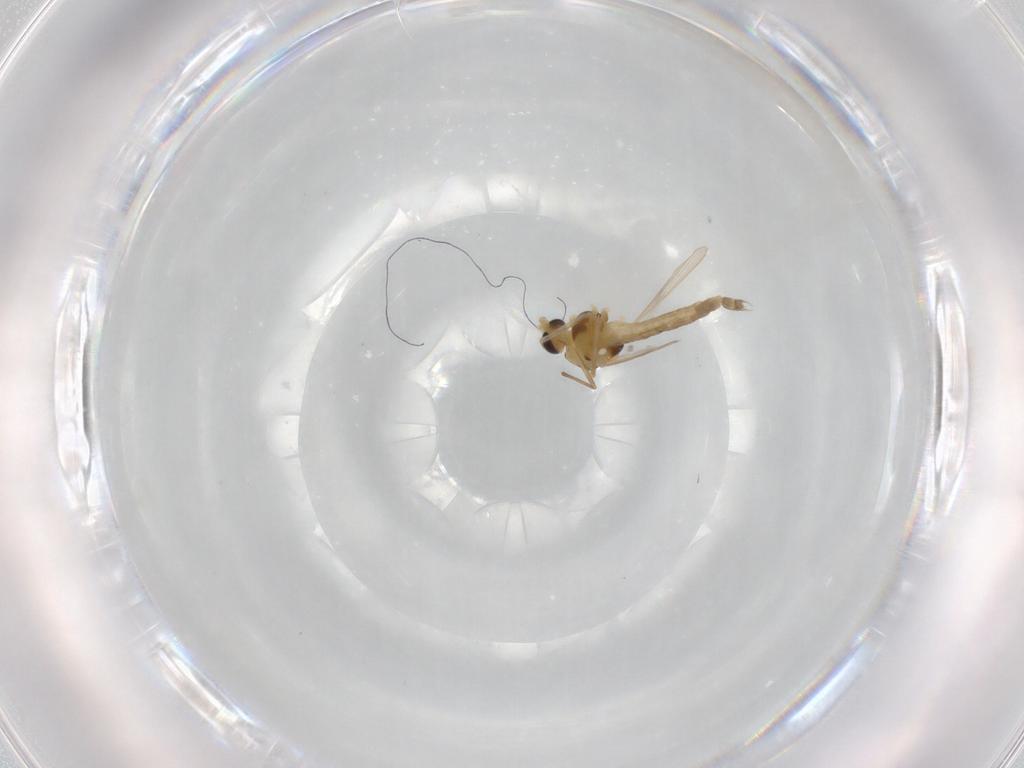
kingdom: Animalia
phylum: Arthropoda
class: Insecta
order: Diptera
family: Chironomidae
